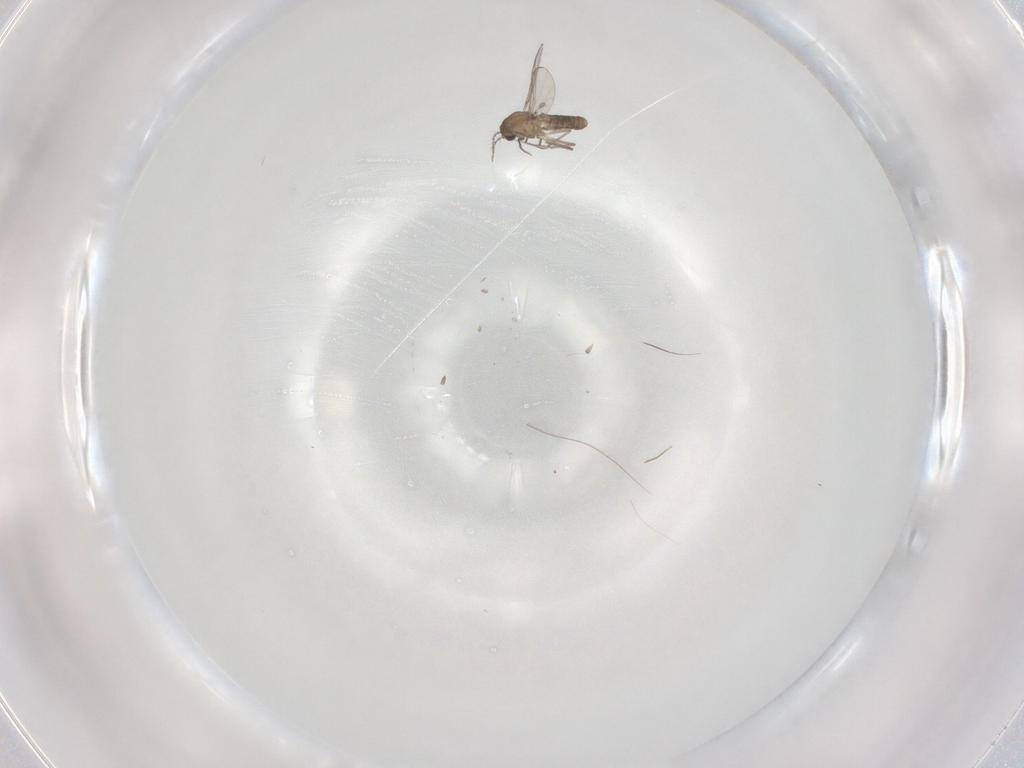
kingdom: Animalia
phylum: Arthropoda
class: Insecta
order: Diptera
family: Chironomidae
